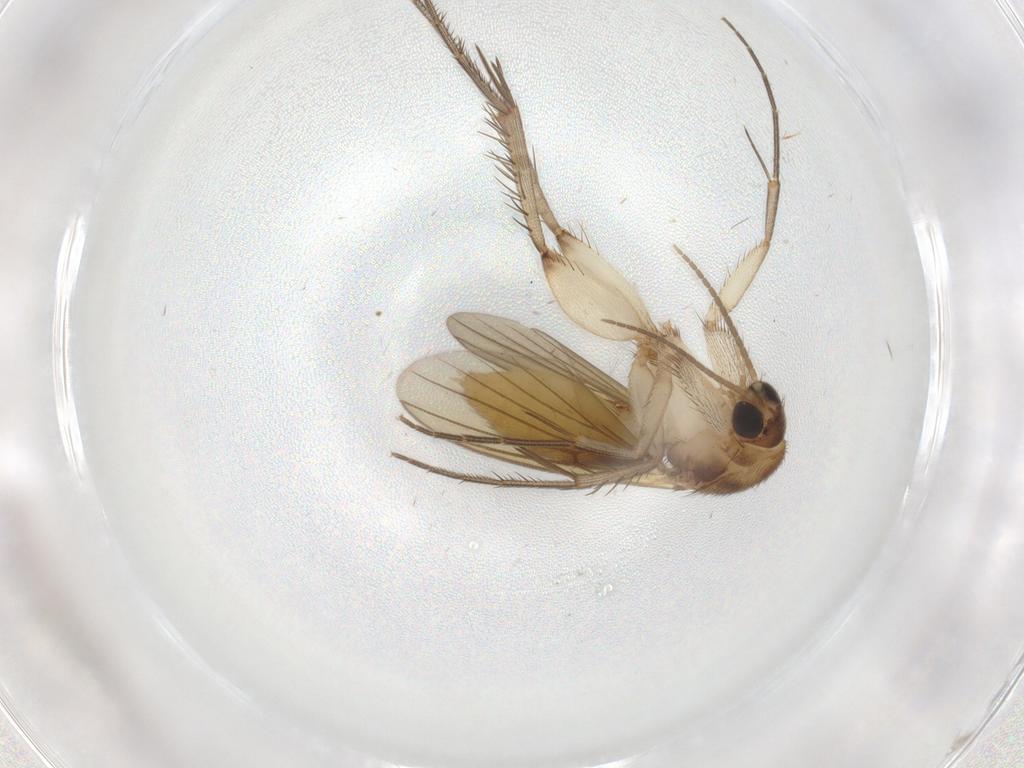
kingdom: Animalia
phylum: Arthropoda
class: Insecta
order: Diptera
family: Mycetophilidae
